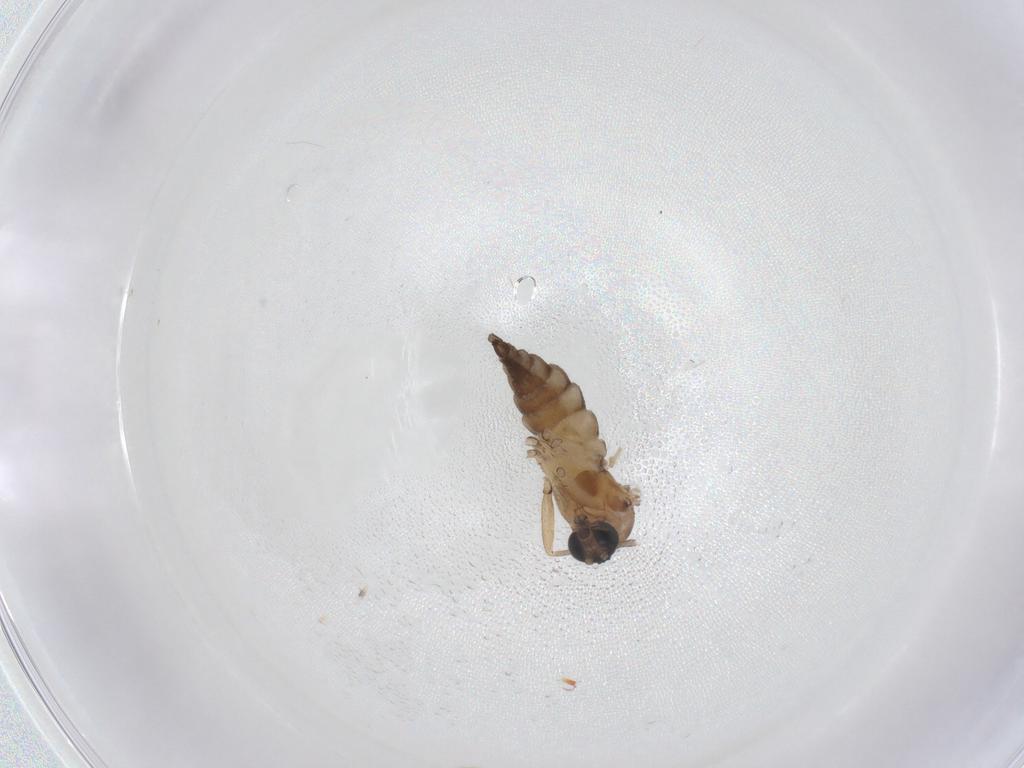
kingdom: Animalia
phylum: Arthropoda
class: Insecta
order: Diptera
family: Sciaridae
